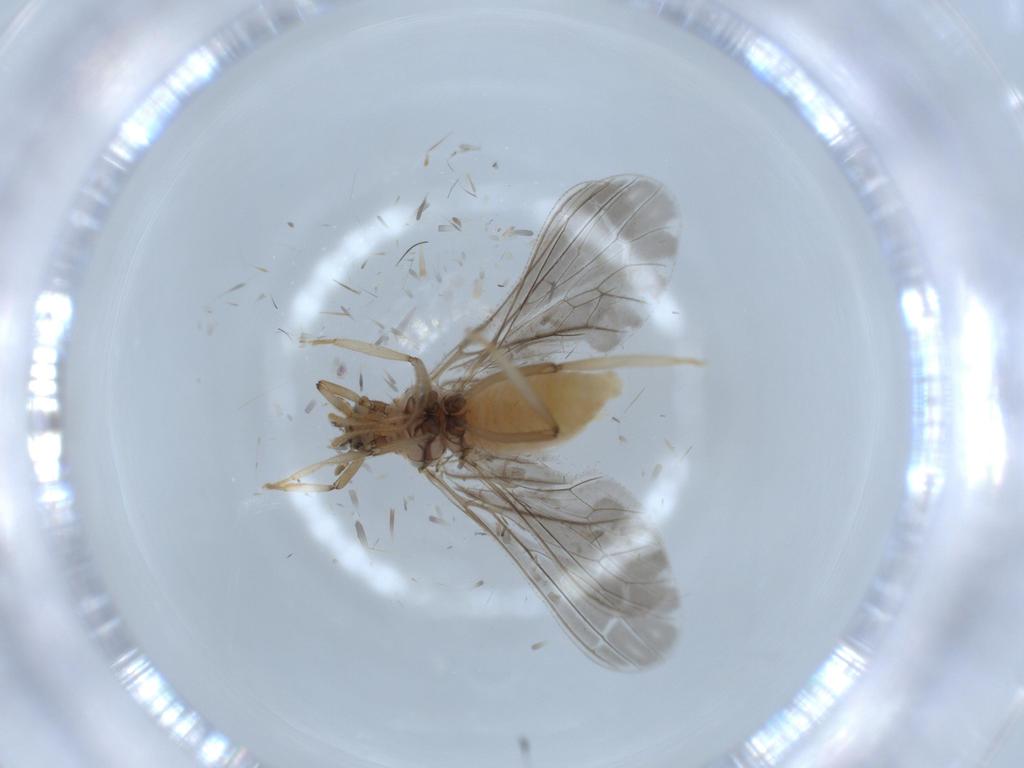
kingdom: Animalia
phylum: Arthropoda
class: Insecta
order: Neuroptera
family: Coniopterygidae
